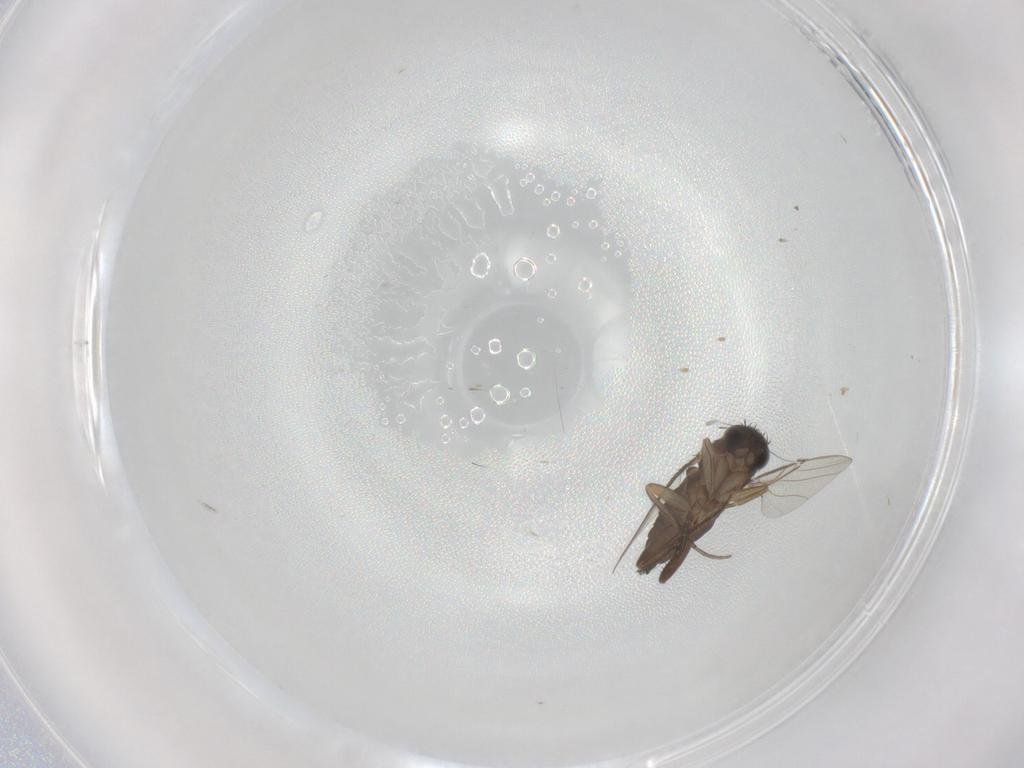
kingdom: Animalia
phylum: Arthropoda
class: Insecta
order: Diptera
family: Phoridae
